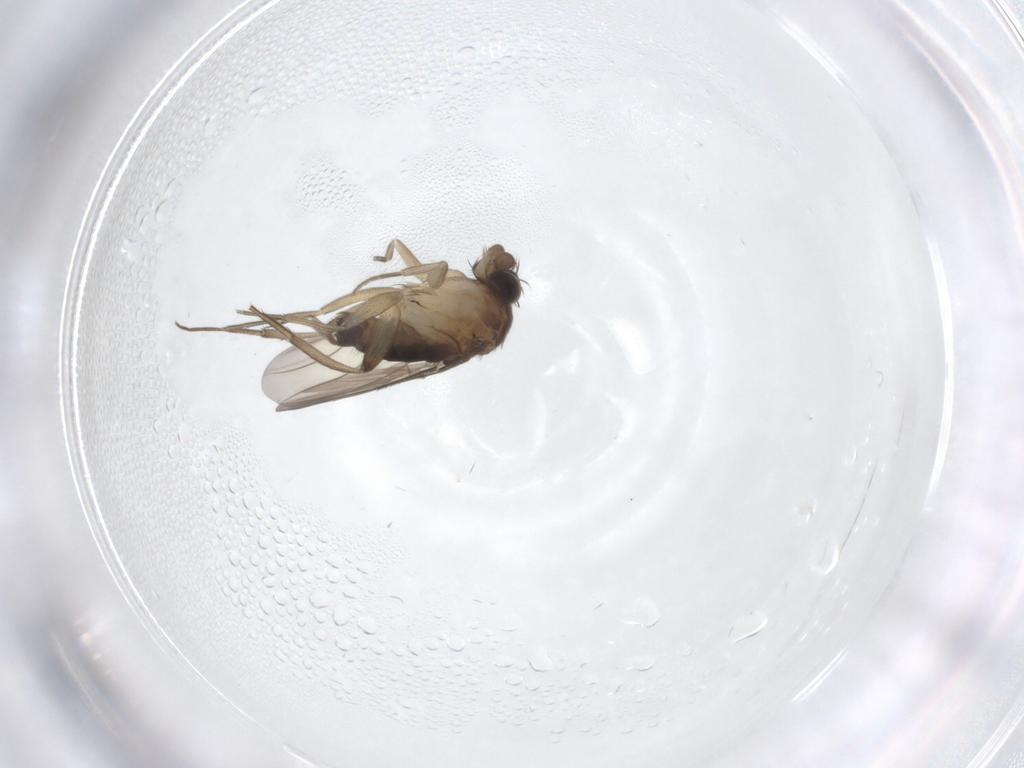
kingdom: Animalia
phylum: Arthropoda
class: Insecta
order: Diptera
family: Phoridae
